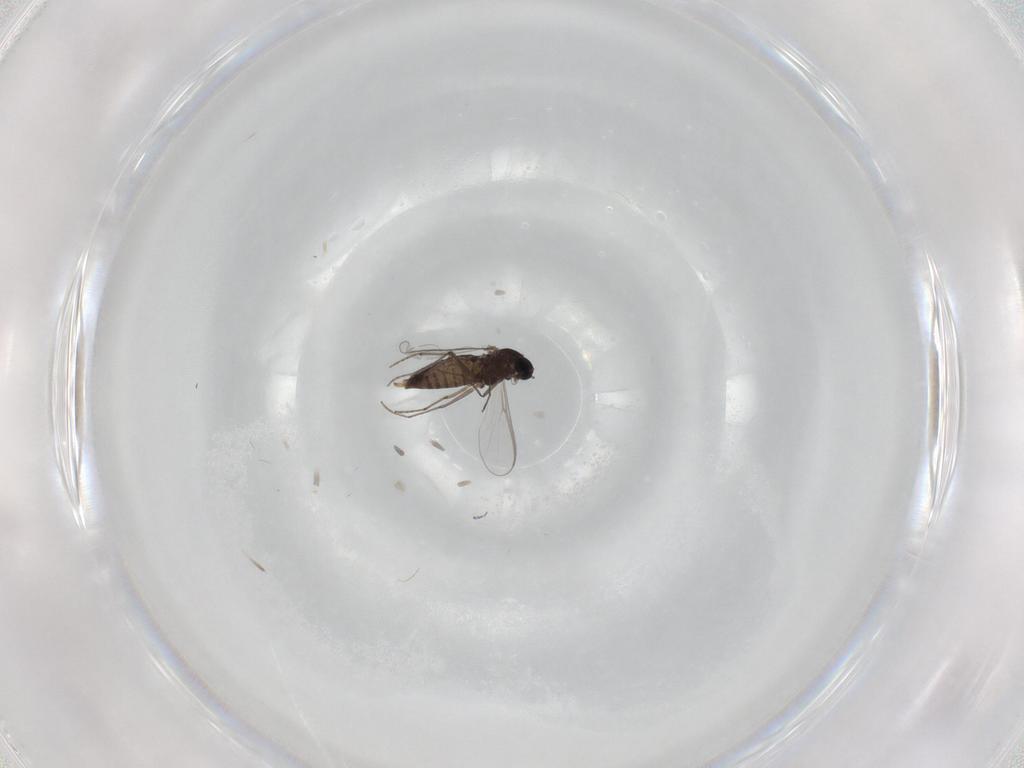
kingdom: Animalia
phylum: Arthropoda
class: Insecta
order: Diptera
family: Chironomidae
